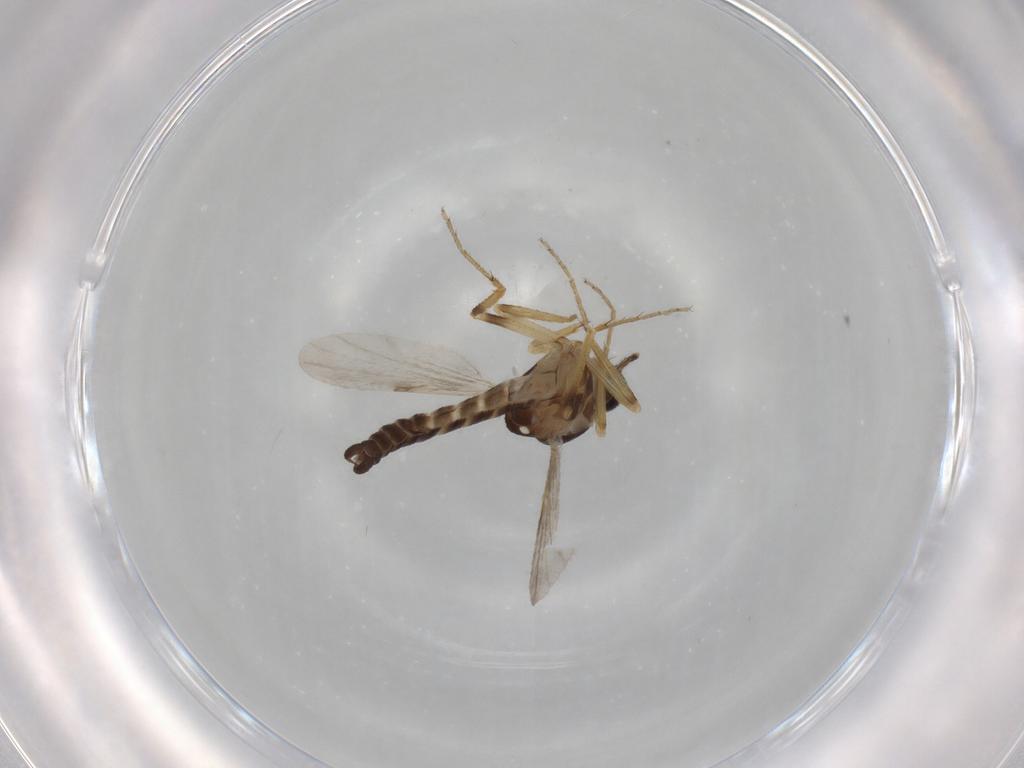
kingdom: Animalia
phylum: Arthropoda
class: Insecta
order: Diptera
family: Ceratopogonidae
